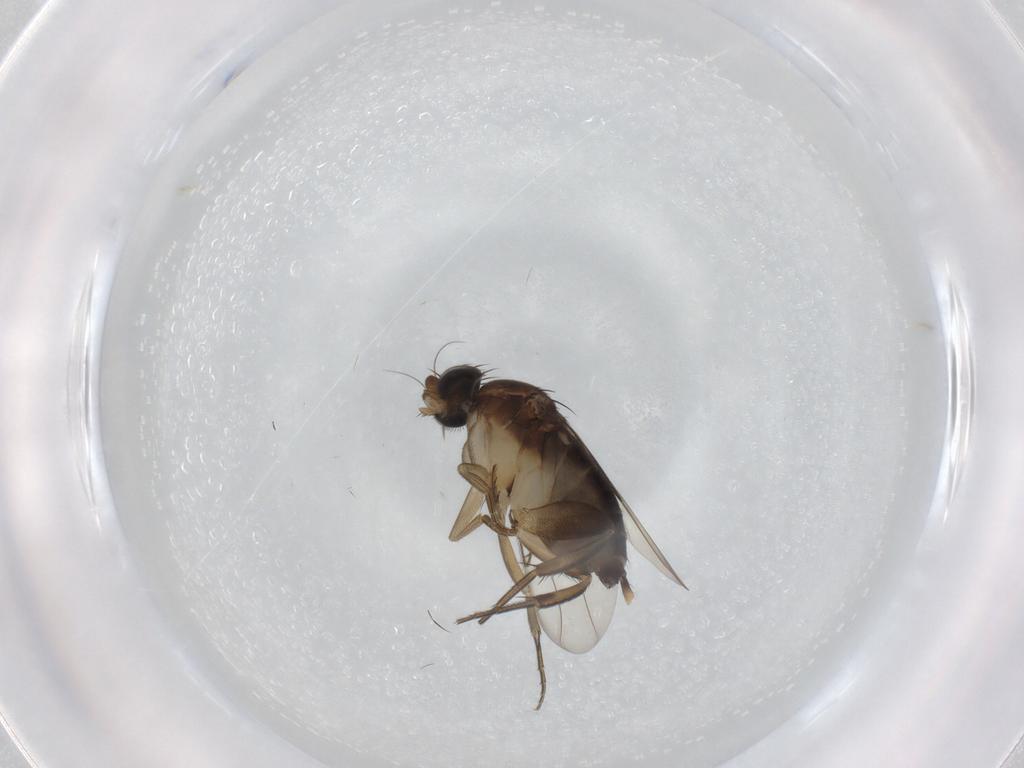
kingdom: Animalia
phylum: Arthropoda
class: Insecta
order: Diptera
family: Phoridae
